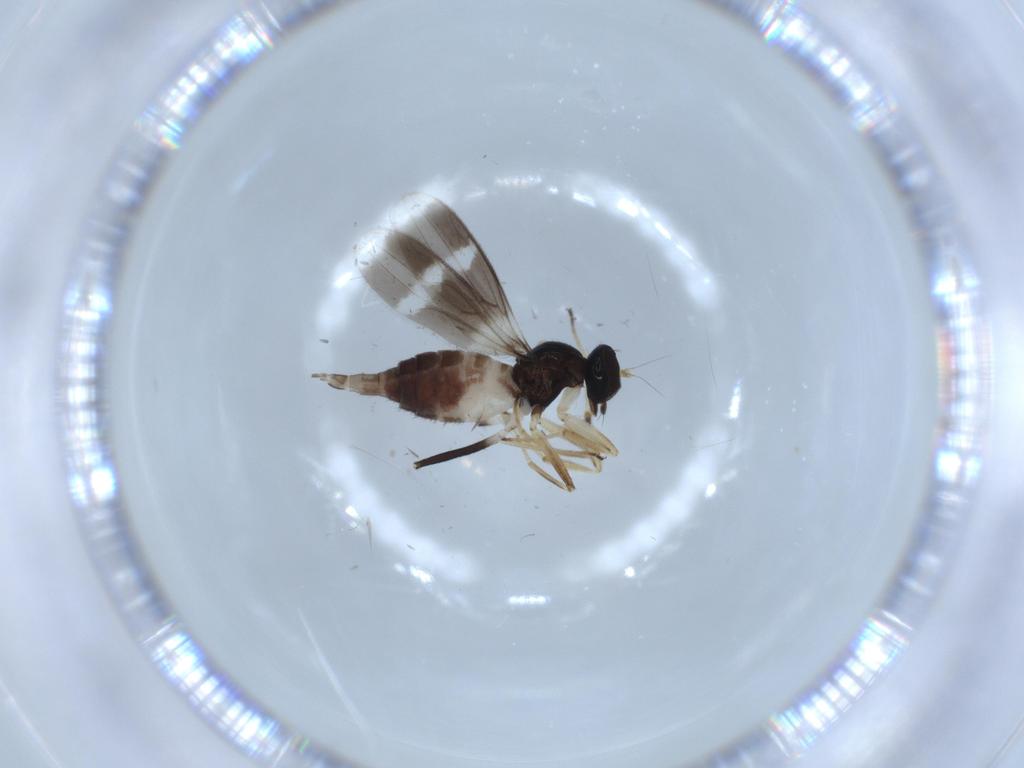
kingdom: Animalia
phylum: Arthropoda
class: Insecta
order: Diptera
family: Hybotidae
